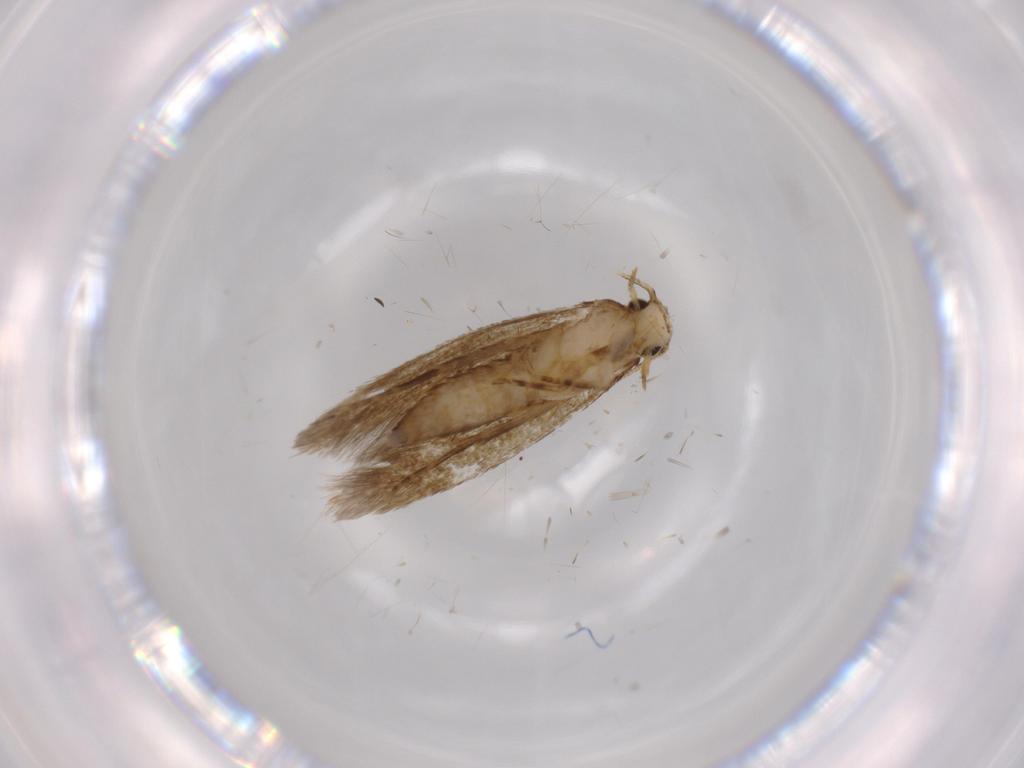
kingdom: Animalia
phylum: Arthropoda
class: Insecta
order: Lepidoptera
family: Tineidae
